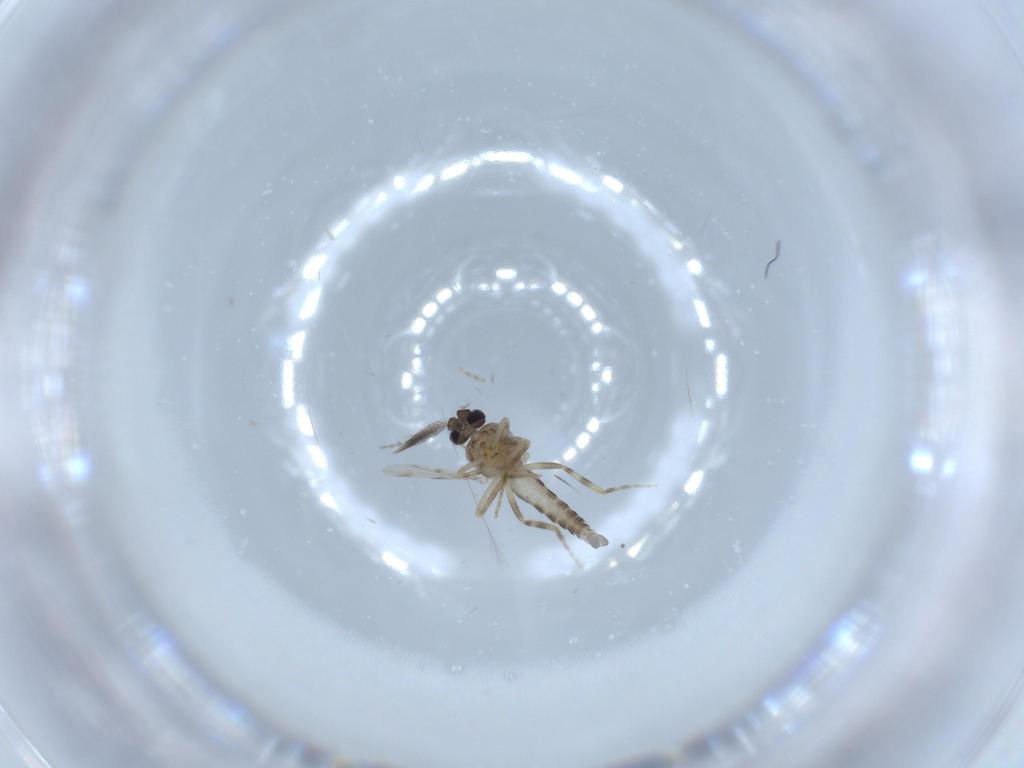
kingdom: Animalia
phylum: Arthropoda
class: Insecta
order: Diptera
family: Ceratopogonidae
